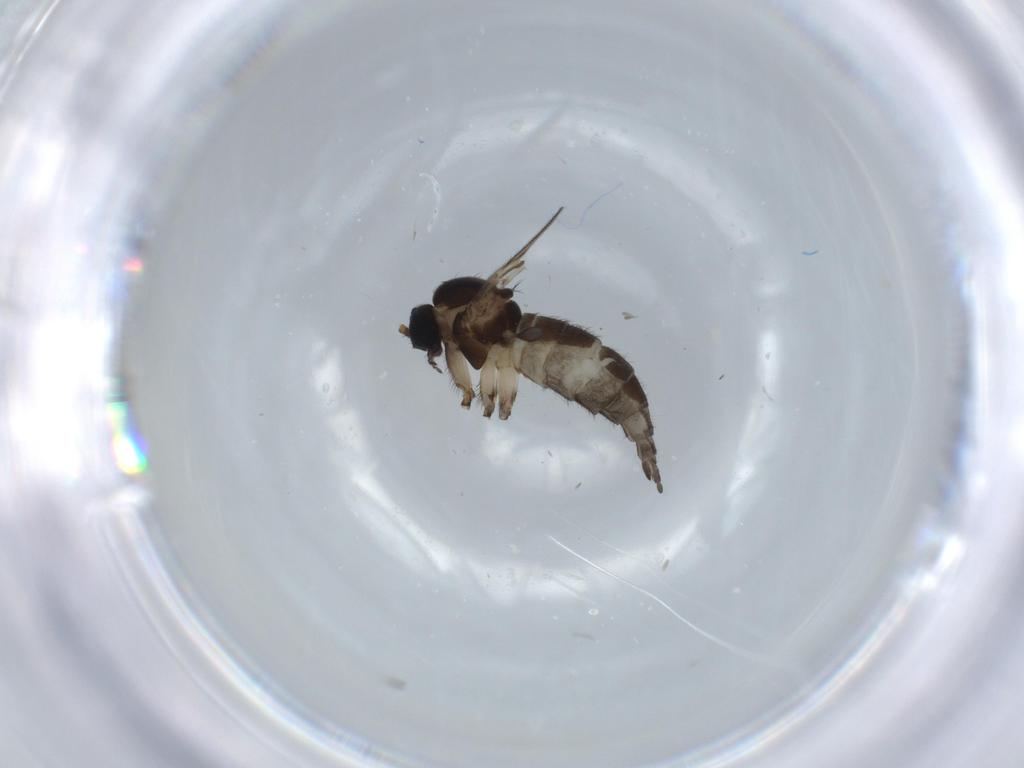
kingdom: Animalia
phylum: Arthropoda
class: Insecta
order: Diptera
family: Sciaridae
